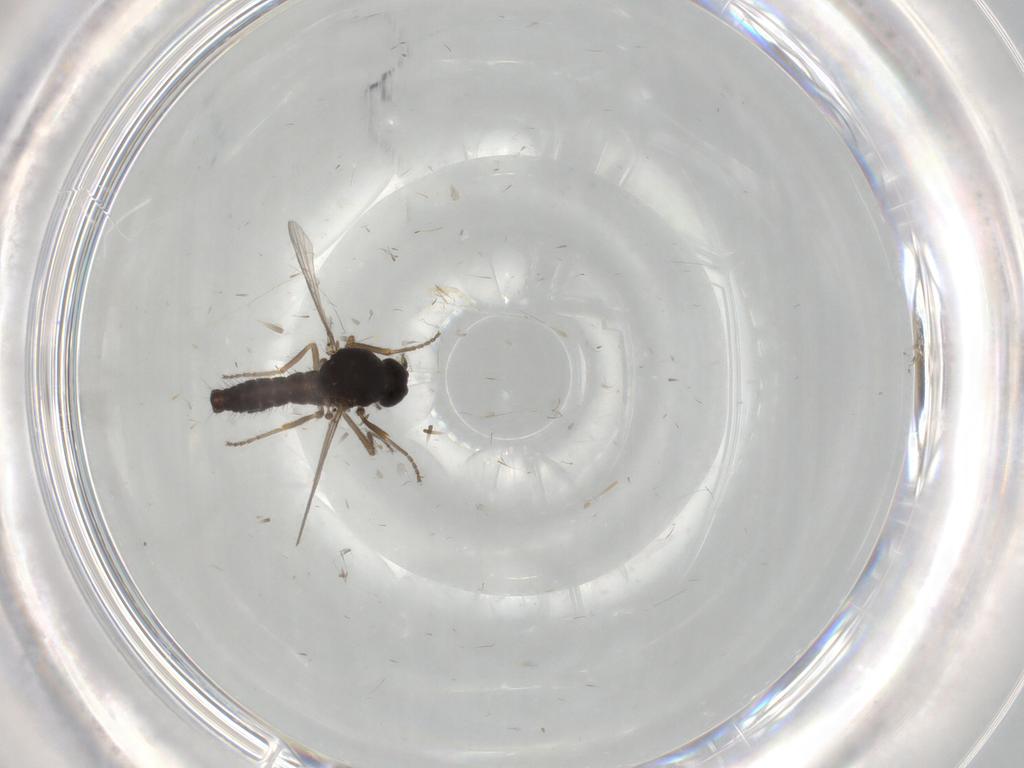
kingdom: Animalia
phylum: Arthropoda
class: Insecta
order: Diptera
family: Ceratopogonidae
